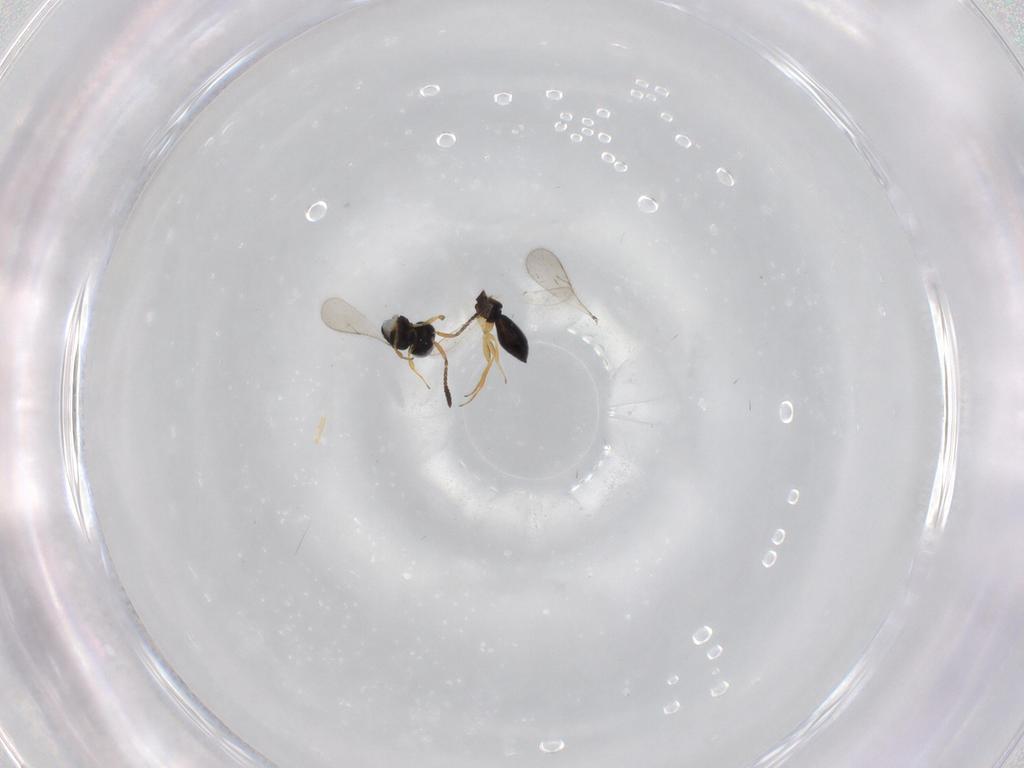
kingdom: Animalia
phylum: Arthropoda
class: Insecta
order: Hymenoptera
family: Scelionidae
